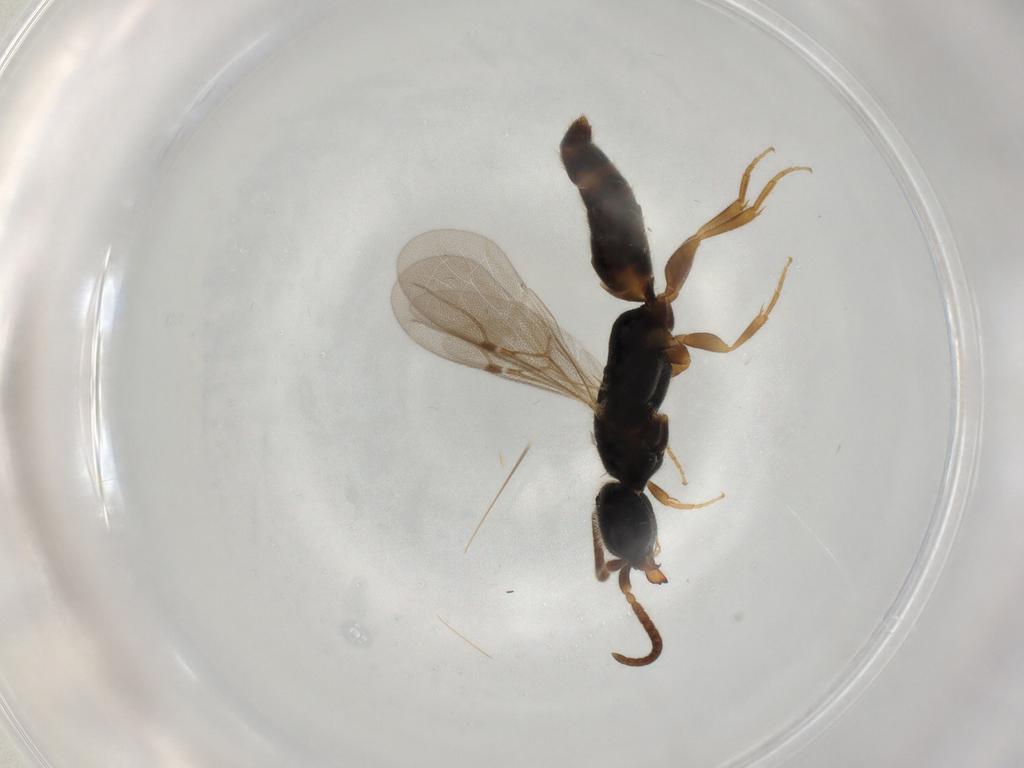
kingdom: Animalia
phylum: Arthropoda
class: Insecta
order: Hymenoptera
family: Bethylidae
